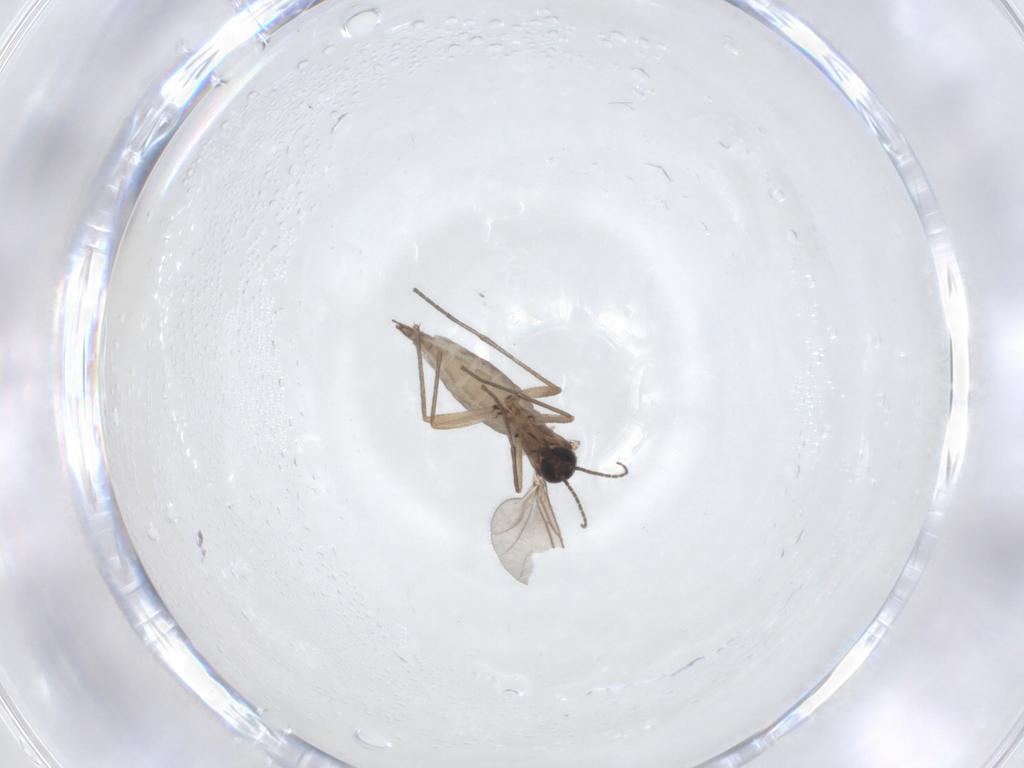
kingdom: Animalia
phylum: Arthropoda
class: Insecta
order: Diptera
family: Sciaridae
